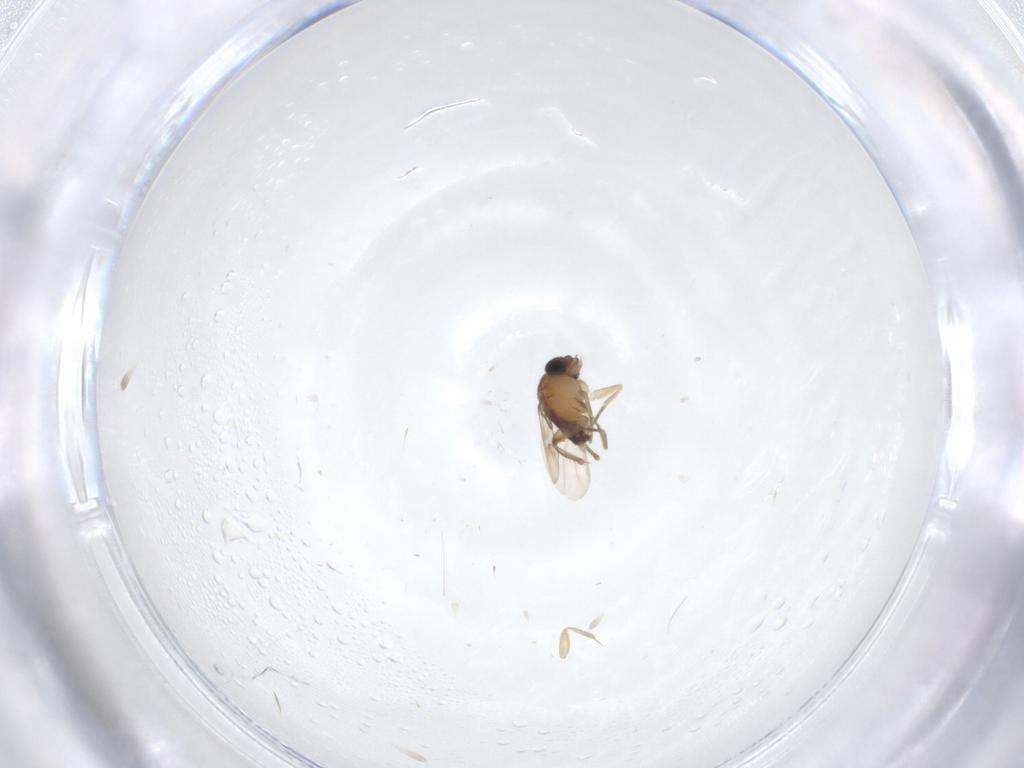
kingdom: Animalia
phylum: Arthropoda
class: Insecta
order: Diptera
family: Phoridae
